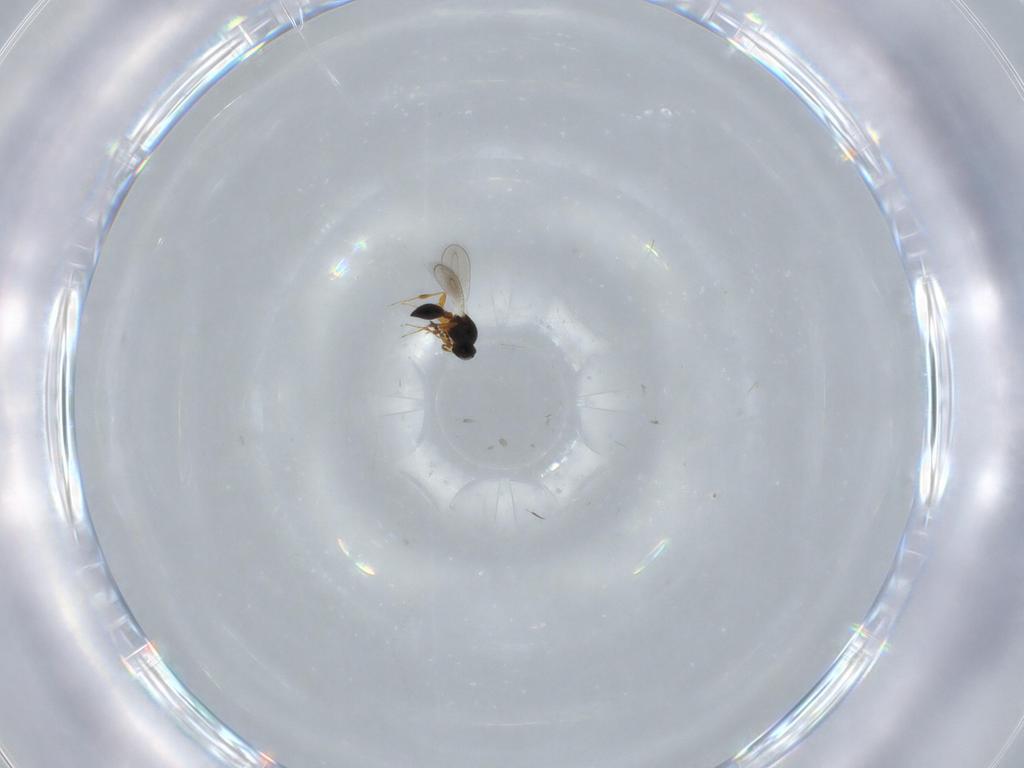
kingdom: Animalia
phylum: Arthropoda
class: Insecta
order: Hymenoptera
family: Platygastridae
